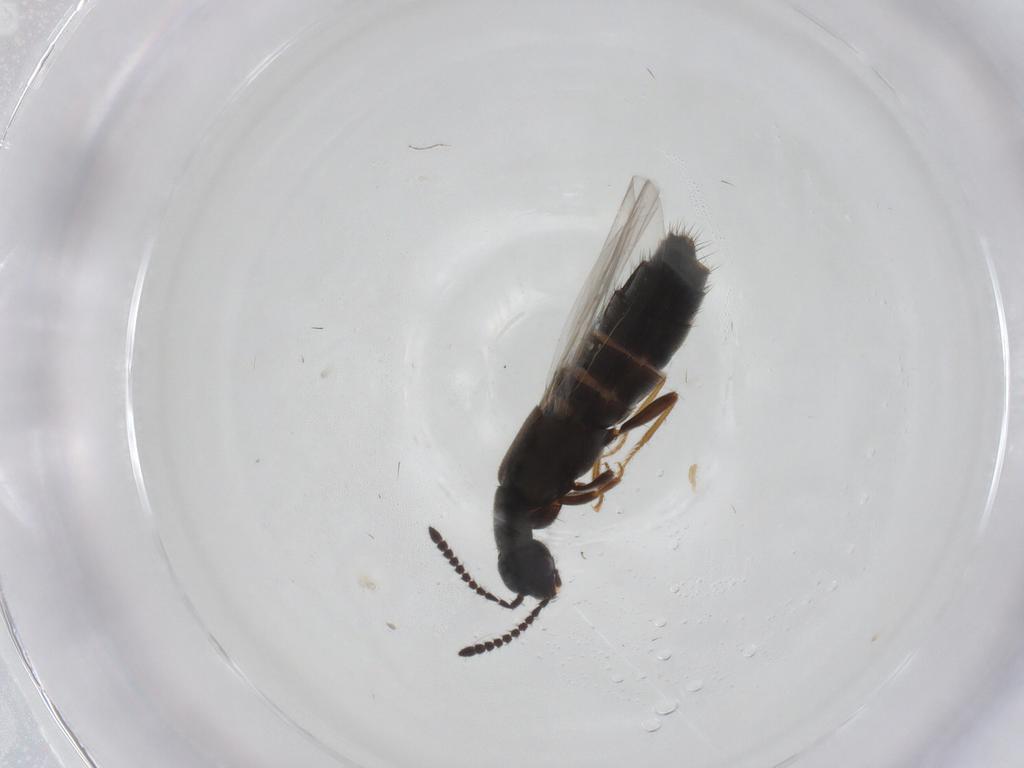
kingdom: Animalia
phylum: Arthropoda
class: Insecta
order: Coleoptera
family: Staphylinidae
